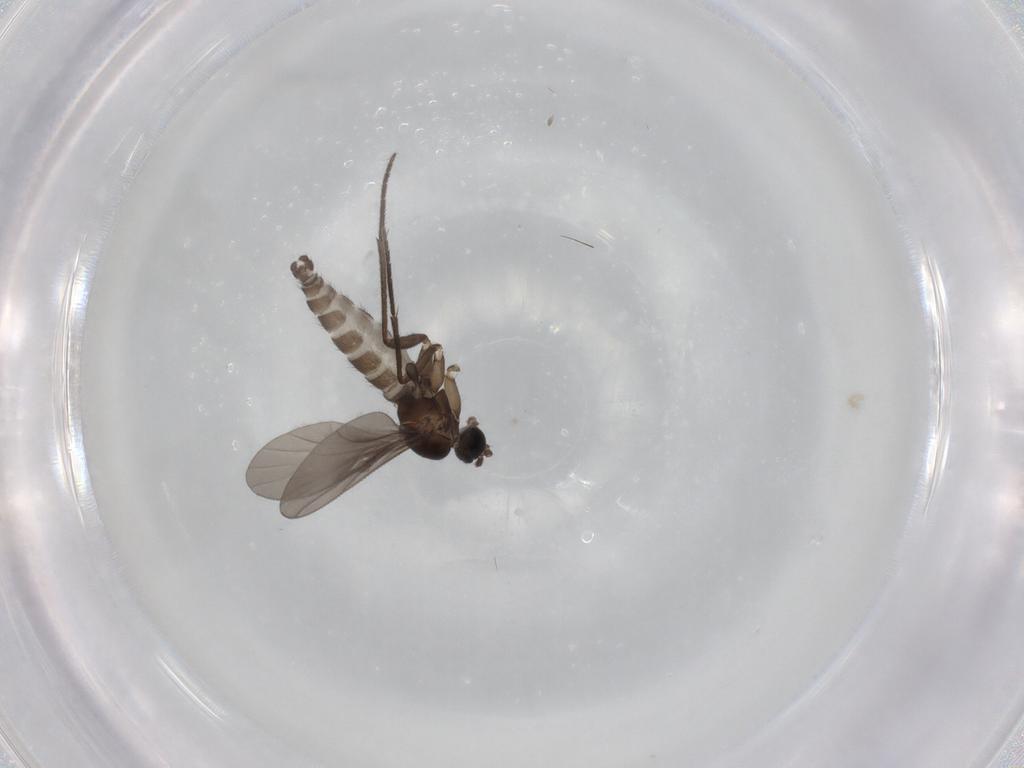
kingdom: Animalia
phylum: Arthropoda
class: Insecta
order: Diptera
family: Sciaridae
